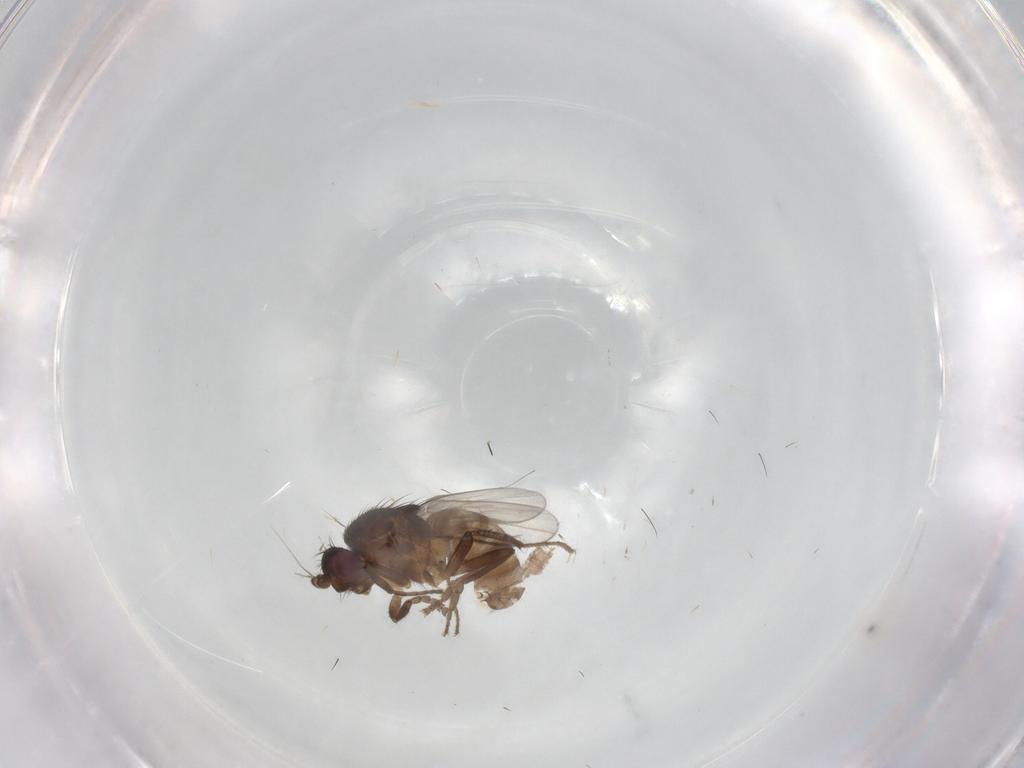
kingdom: Animalia
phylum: Arthropoda
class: Insecta
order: Diptera
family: Sphaeroceridae
